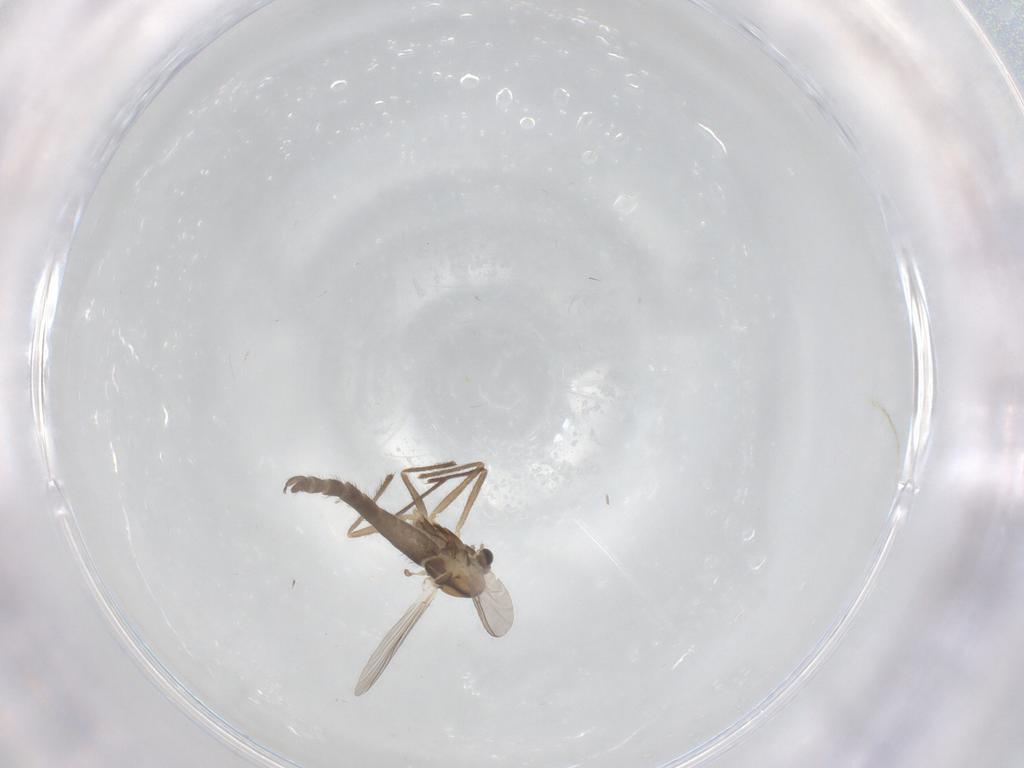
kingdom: Animalia
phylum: Arthropoda
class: Insecta
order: Diptera
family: Chironomidae
